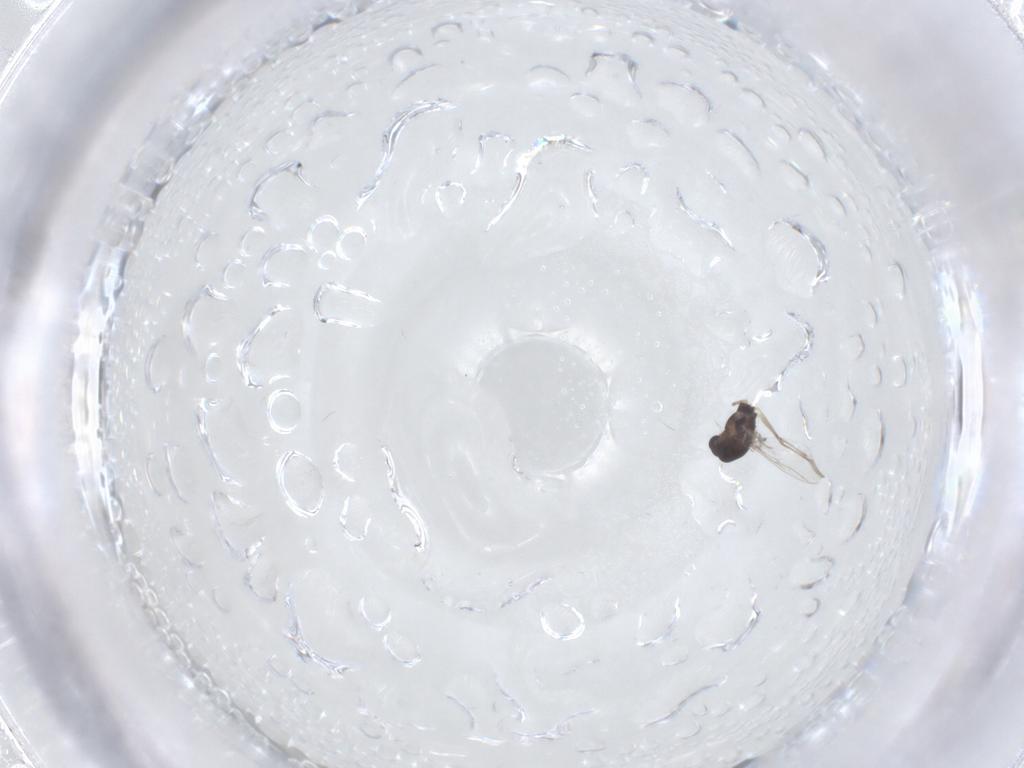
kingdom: Animalia
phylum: Arthropoda
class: Insecta
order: Diptera
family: Chironomidae
